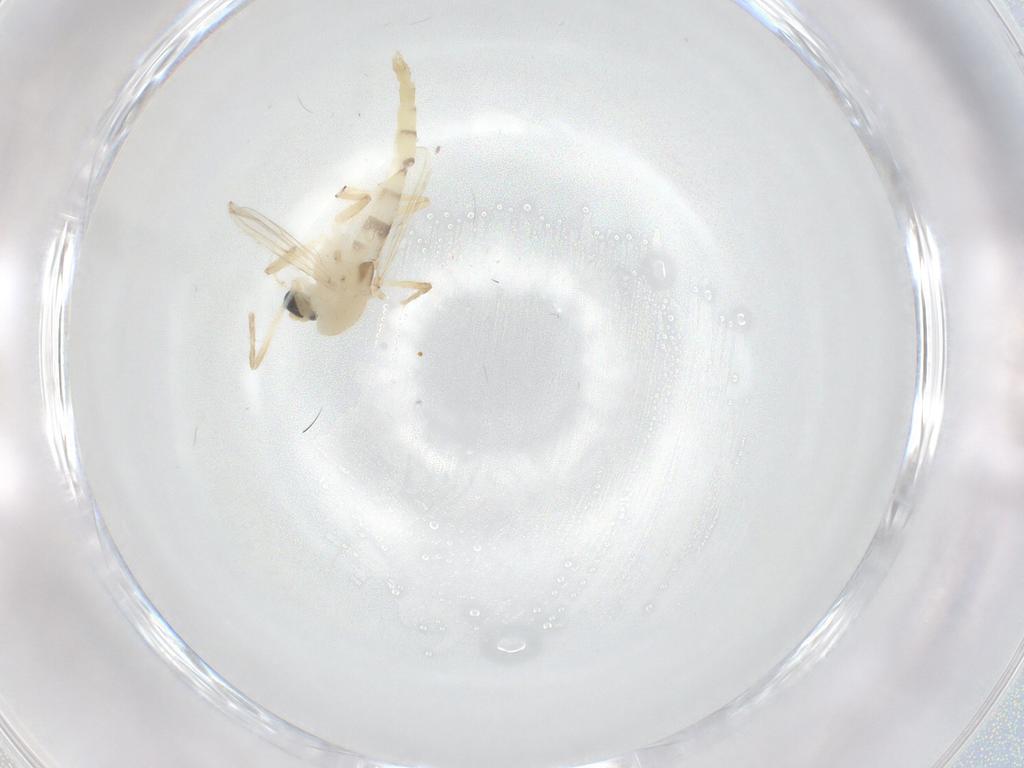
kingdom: Animalia
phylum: Arthropoda
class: Insecta
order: Diptera
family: Chironomidae
